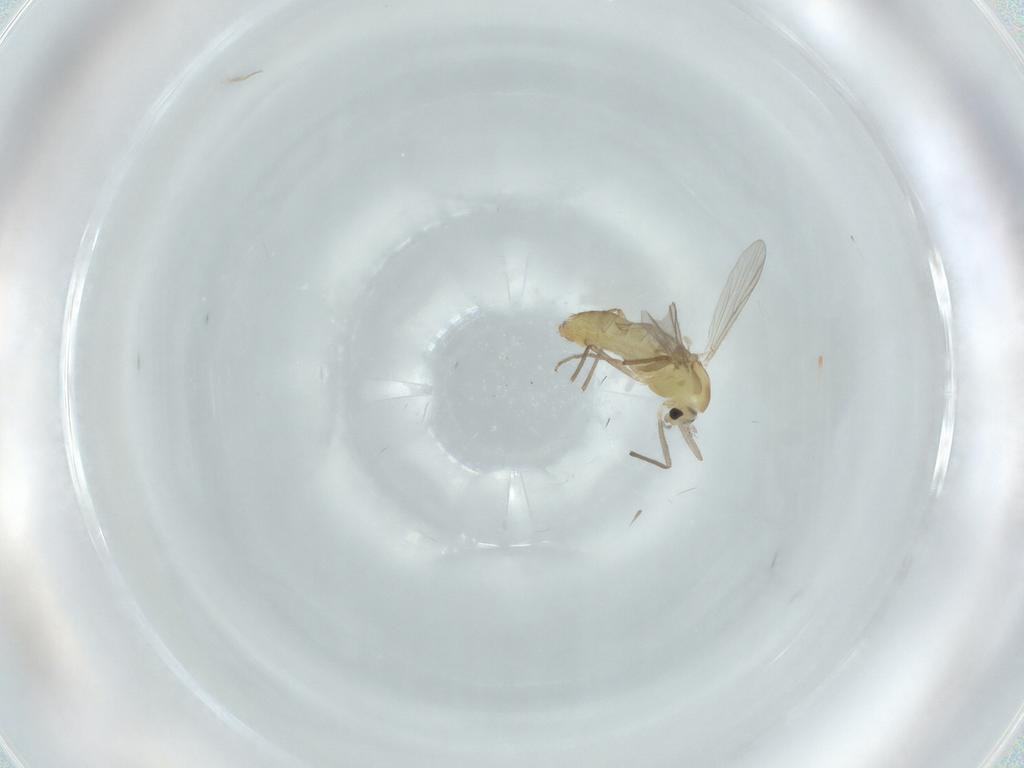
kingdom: Animalia
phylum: Arthropoda
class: Insecta
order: Diptera
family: Chironomidae
